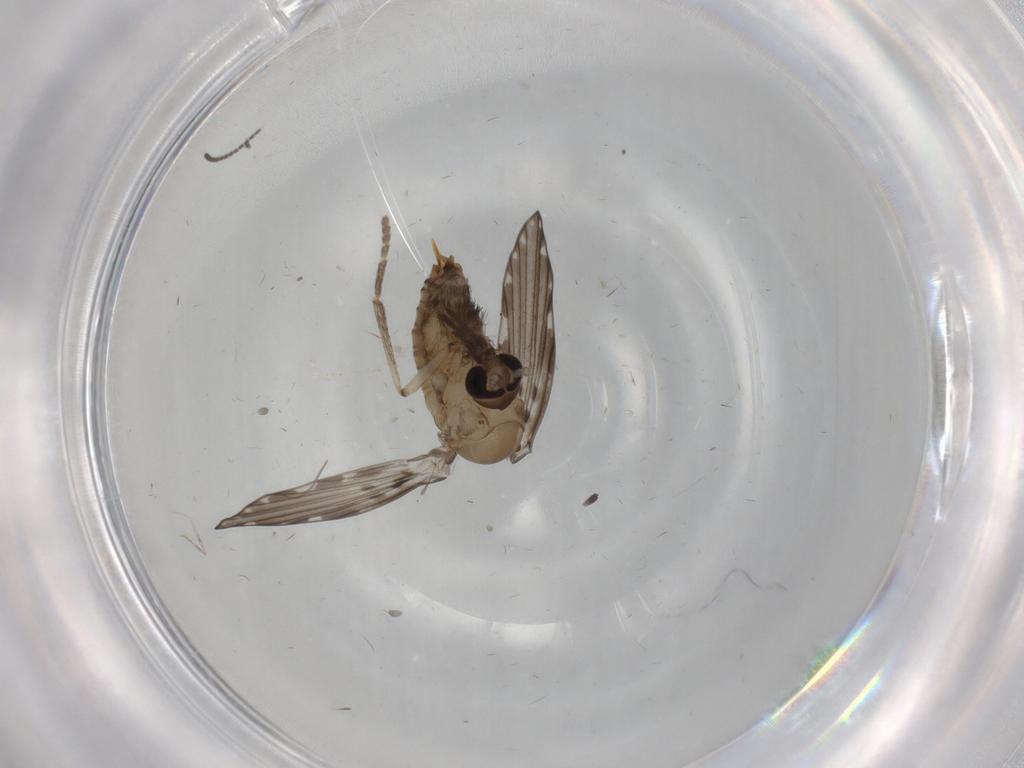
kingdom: Animalia
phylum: Arthropoda
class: Insecta
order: Diptera
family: Psychodidae
